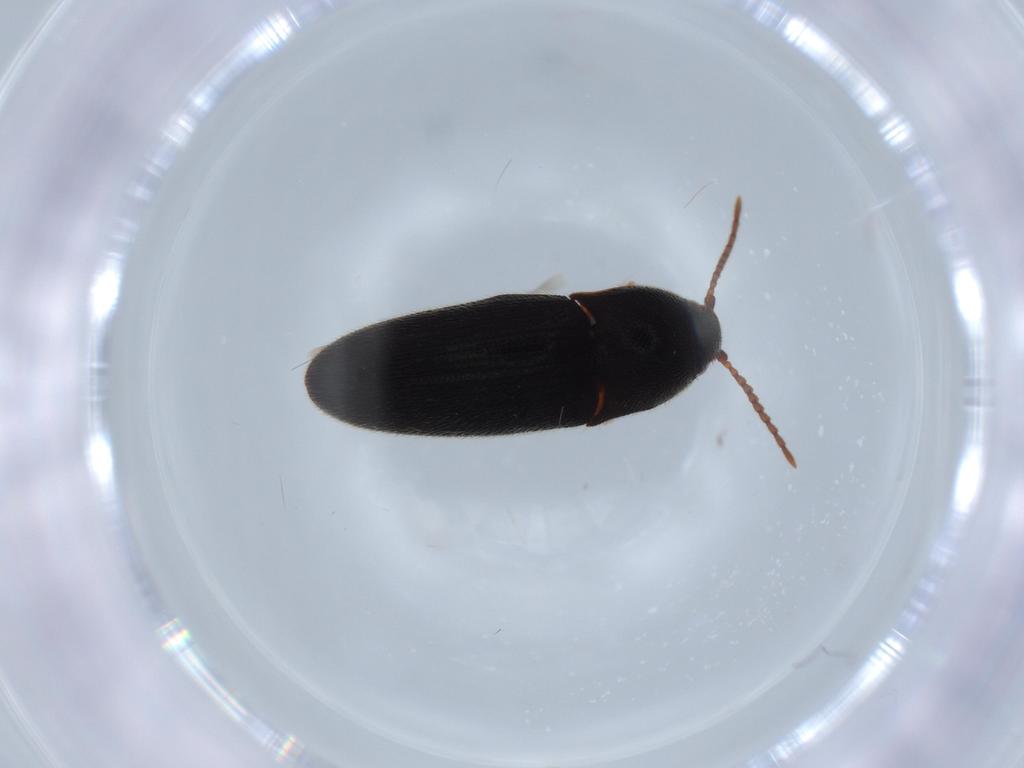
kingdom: Animalia
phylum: Arthropoda
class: Insecta
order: Coleoptera
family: Elateridae
